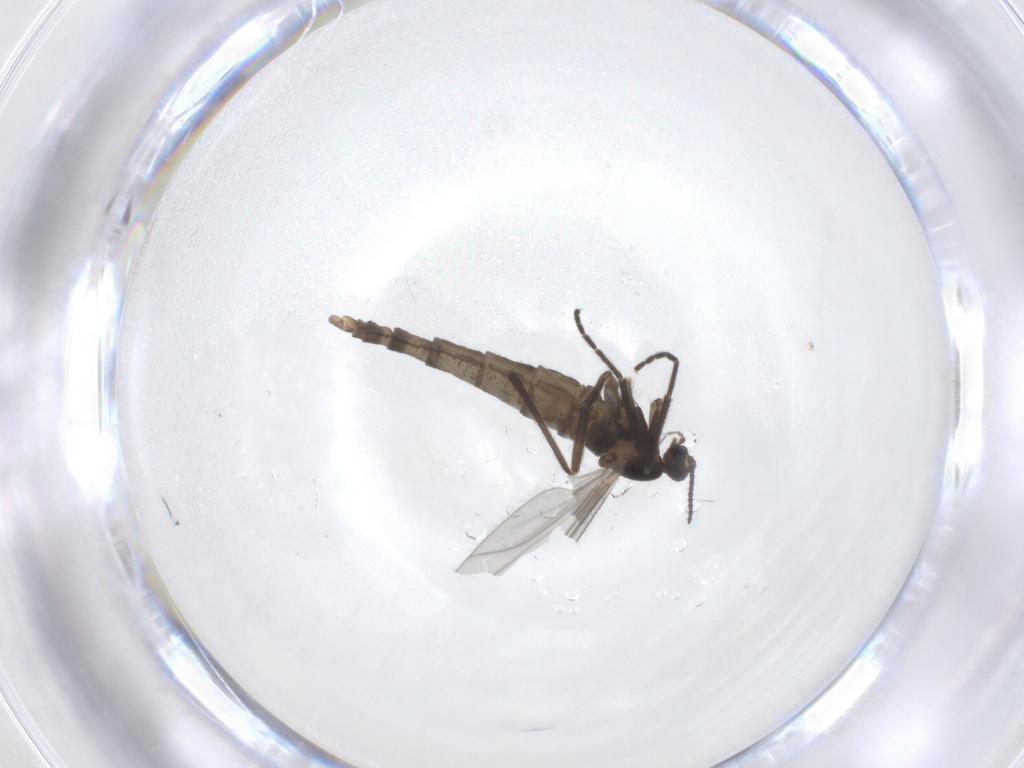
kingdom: Animalia
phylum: Arthropoda
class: Insecta
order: Diptera
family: Cecidomyiidae
